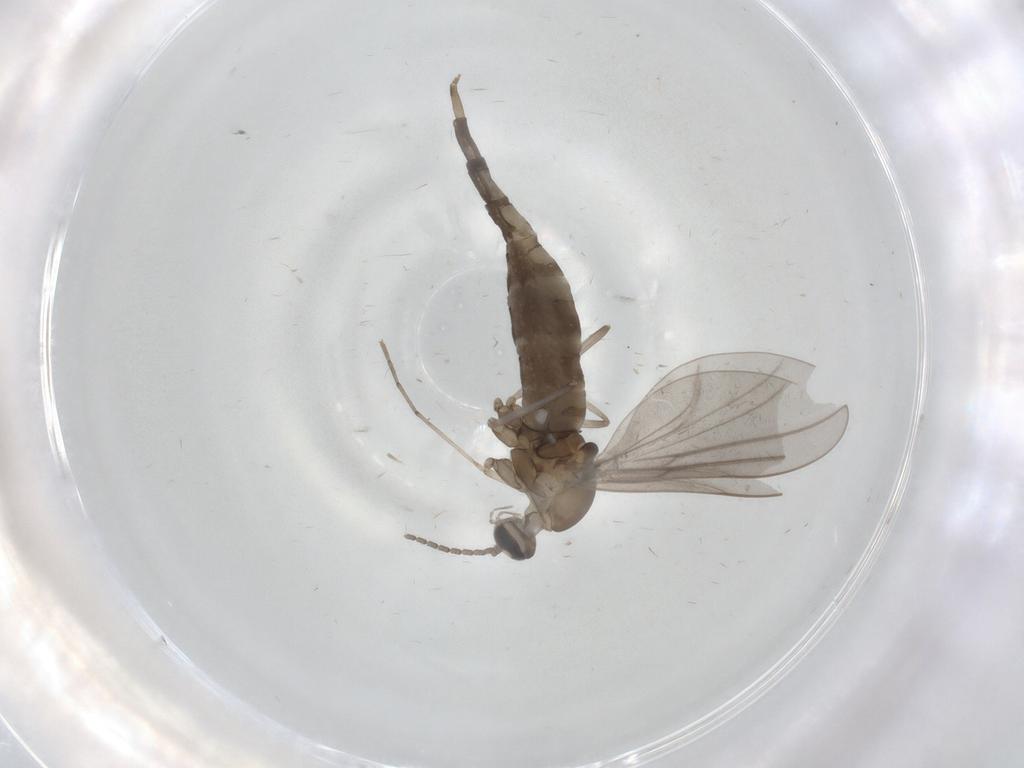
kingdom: Animalia
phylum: Arthropoda
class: Insecta
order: Diptera
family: Cecidomyiidae
